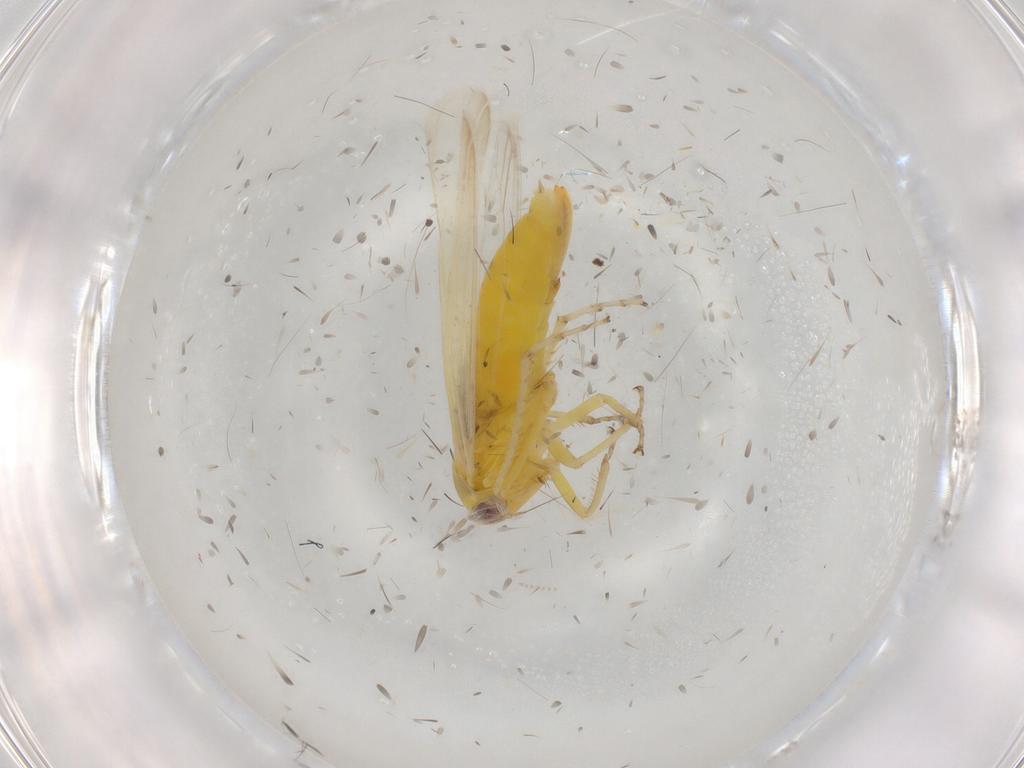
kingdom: Animalia
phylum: Arthropoda
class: Insecta
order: Hemiptera
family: Cicadellidae
